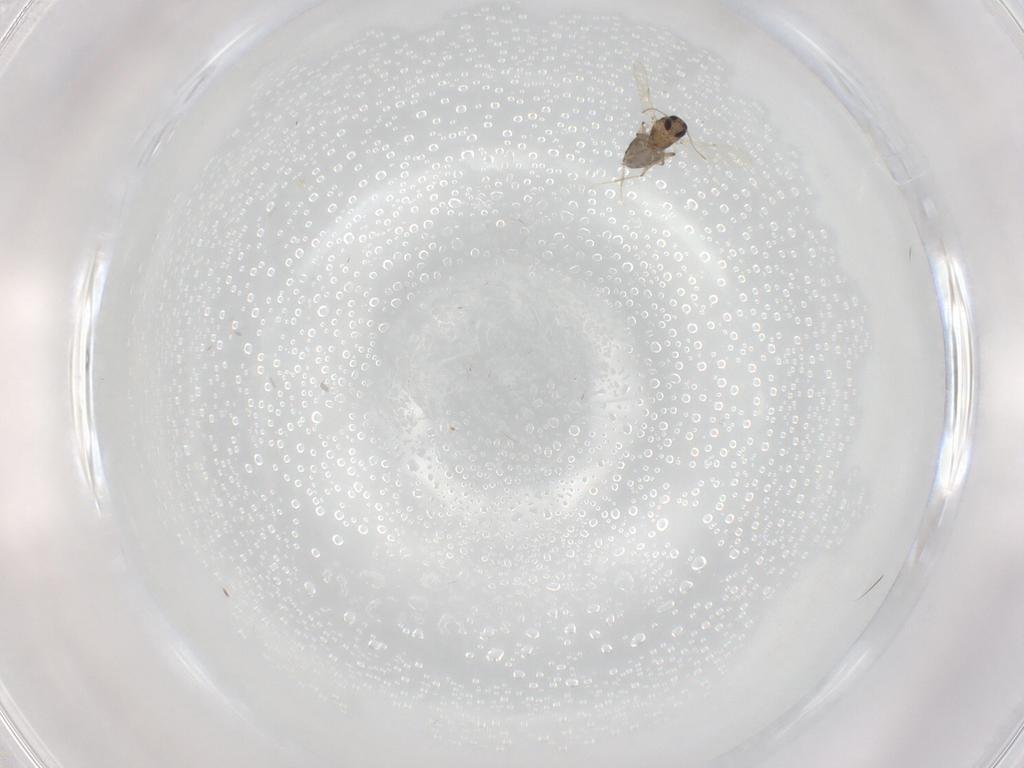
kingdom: Animalia
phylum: Arthropoda
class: Insecta
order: Diptera
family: Ceratopogonidae
